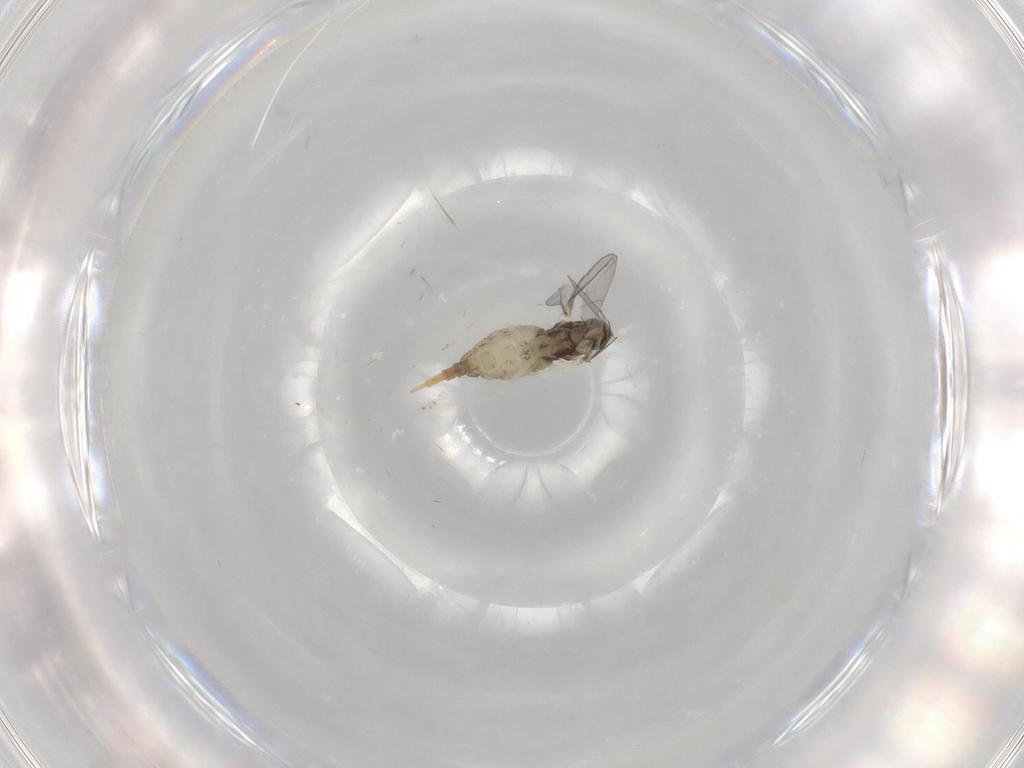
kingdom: Animalia
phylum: Arthropoda
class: Insecta
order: Diptera
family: Cecidomyiidae
